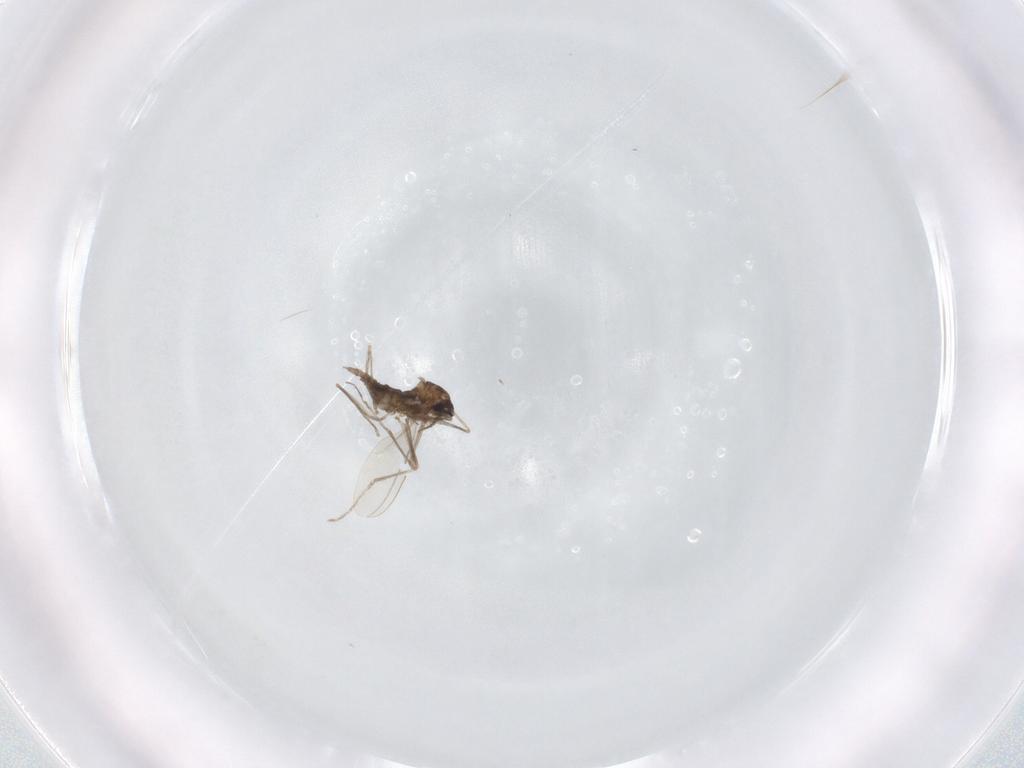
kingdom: Animalia
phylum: Arthropoda
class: Insecta
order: Diptera
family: Cecidomyiidae
